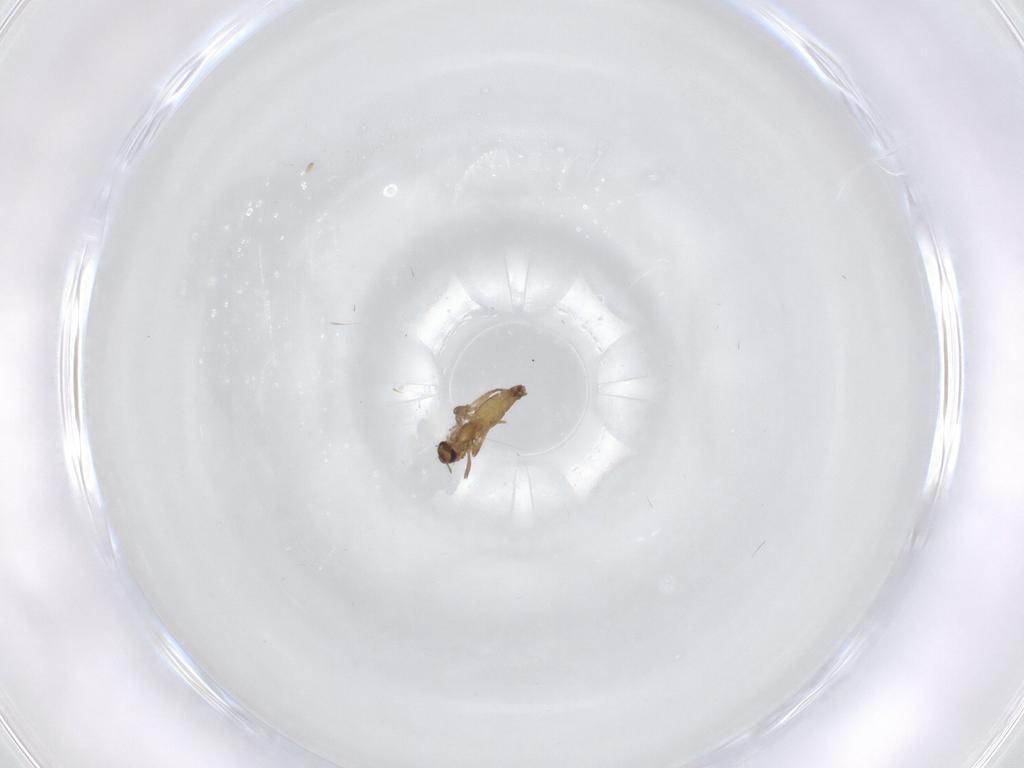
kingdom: Animalia
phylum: Arthropoda
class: Insecta
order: Diptera
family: Chironomidae
